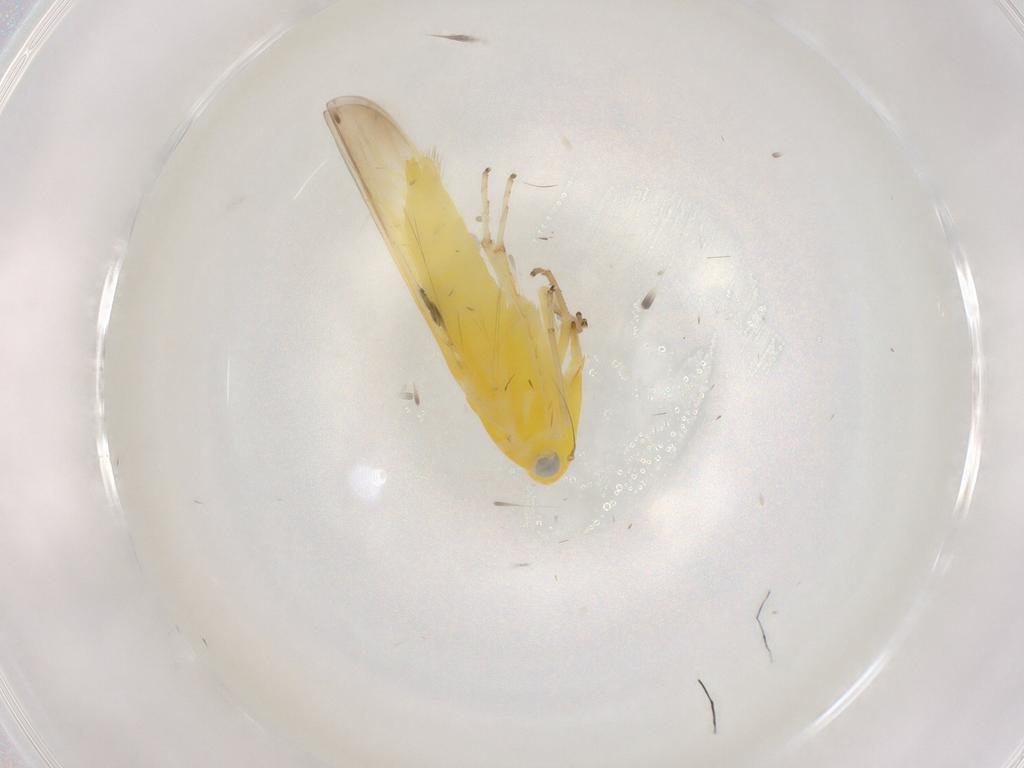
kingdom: Animalia
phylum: Arthropoda
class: Insecta
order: Hemiptera
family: Cicadellidae
